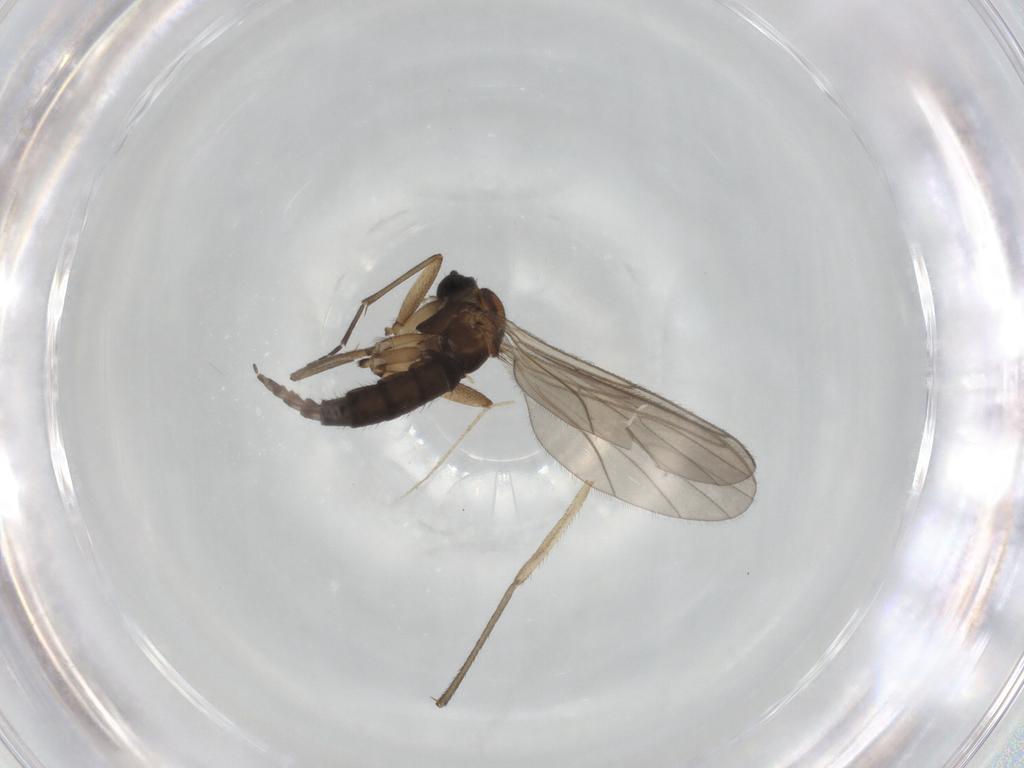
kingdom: Animalia
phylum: Arthropoda
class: Insecta
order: Diptera
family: Sciaridae
